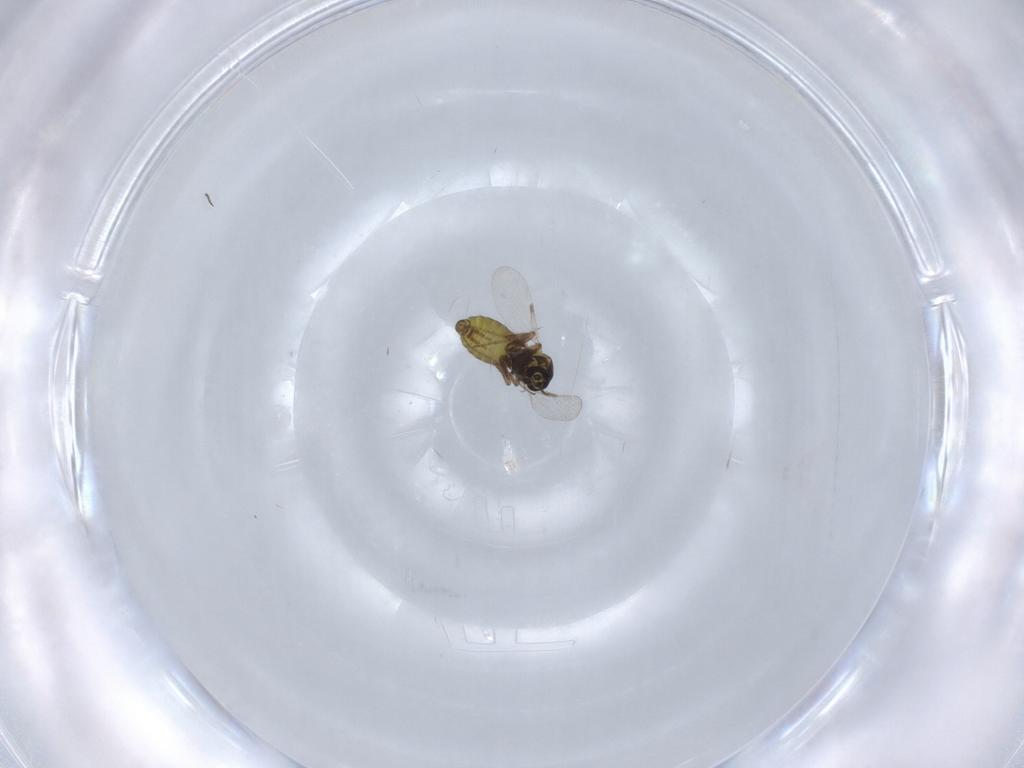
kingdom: Animalia
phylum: Arthropoda
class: Insecta
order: Diptera
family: Ceratopogonidae
